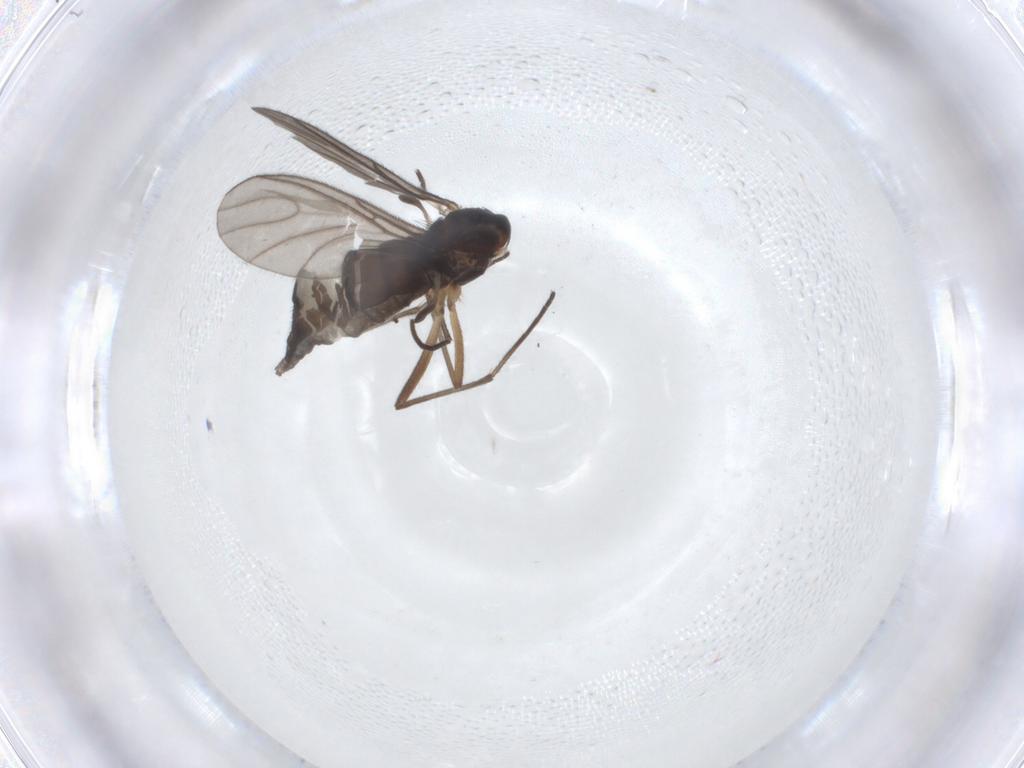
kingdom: Animalia
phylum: Arthropoda
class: Insecta
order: Diptera
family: Sciaridae
